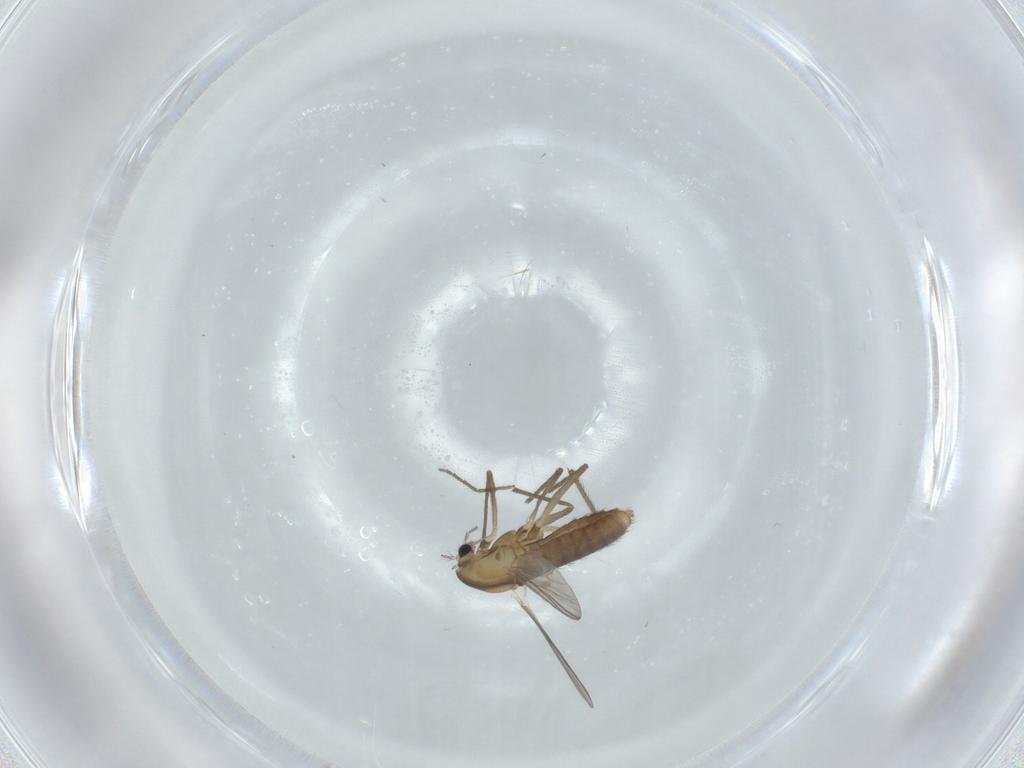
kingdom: Animalia
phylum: Arthropoda
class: Insecta
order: Diptera
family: Chironomidae
